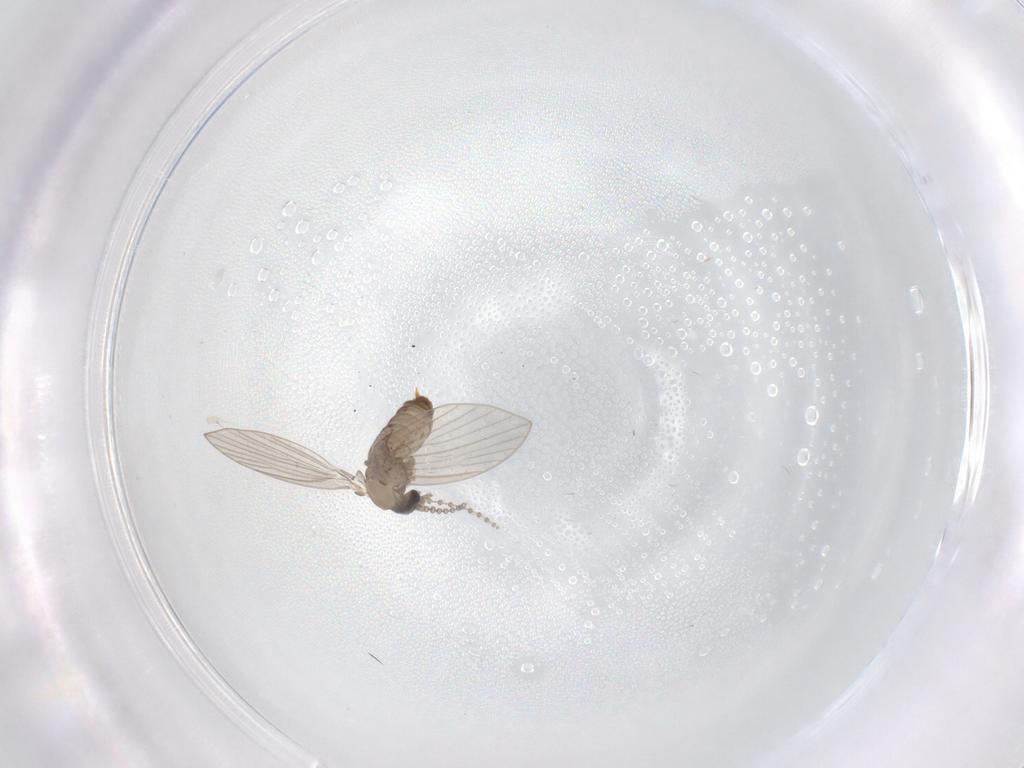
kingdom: Animalia
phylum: Arthropoda
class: Insecta
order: Diptera
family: Psychodidae
